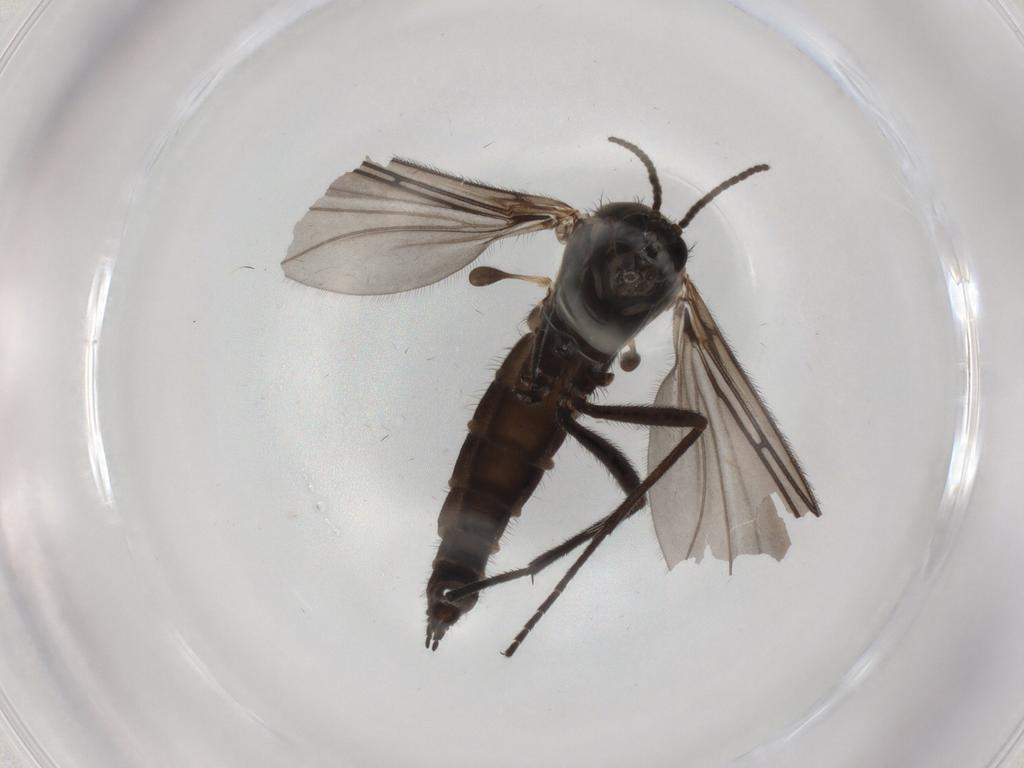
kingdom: Animalia
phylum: Arthropoda
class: Insecta
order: Diptera
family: Sciaridae
